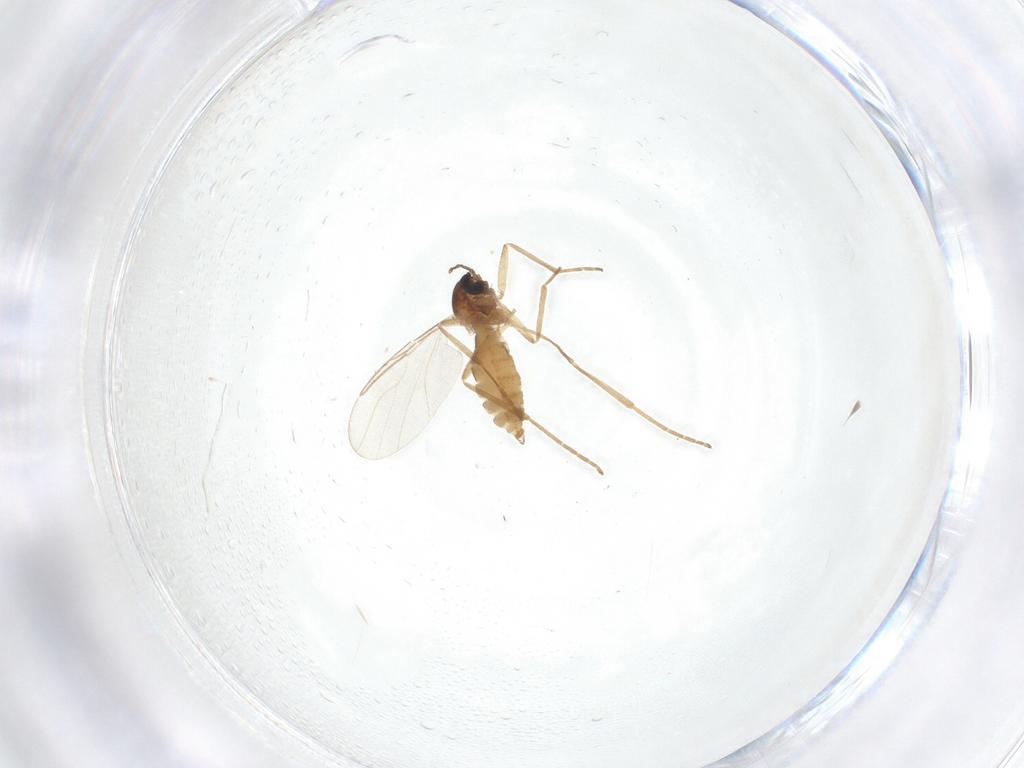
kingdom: Animalia
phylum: Arthropoda
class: Insecta
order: Diptera
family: Cecidomyiidae
